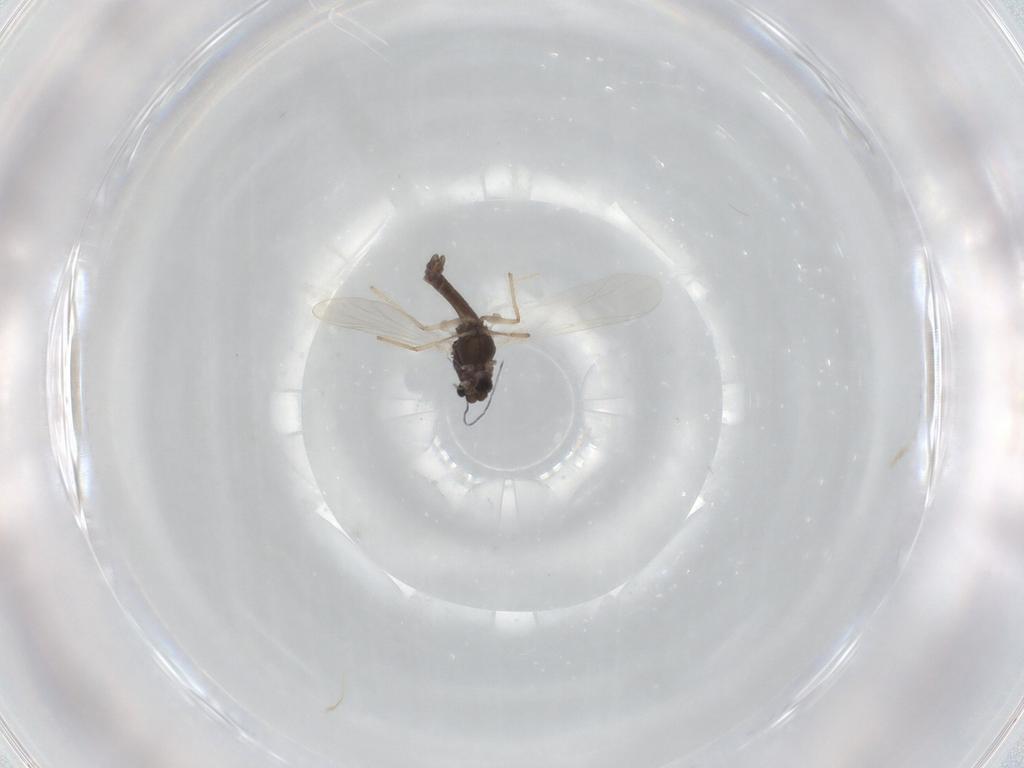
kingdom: Animalia
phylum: Arthropoda
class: Insecta
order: Diptera
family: Chironomidae
